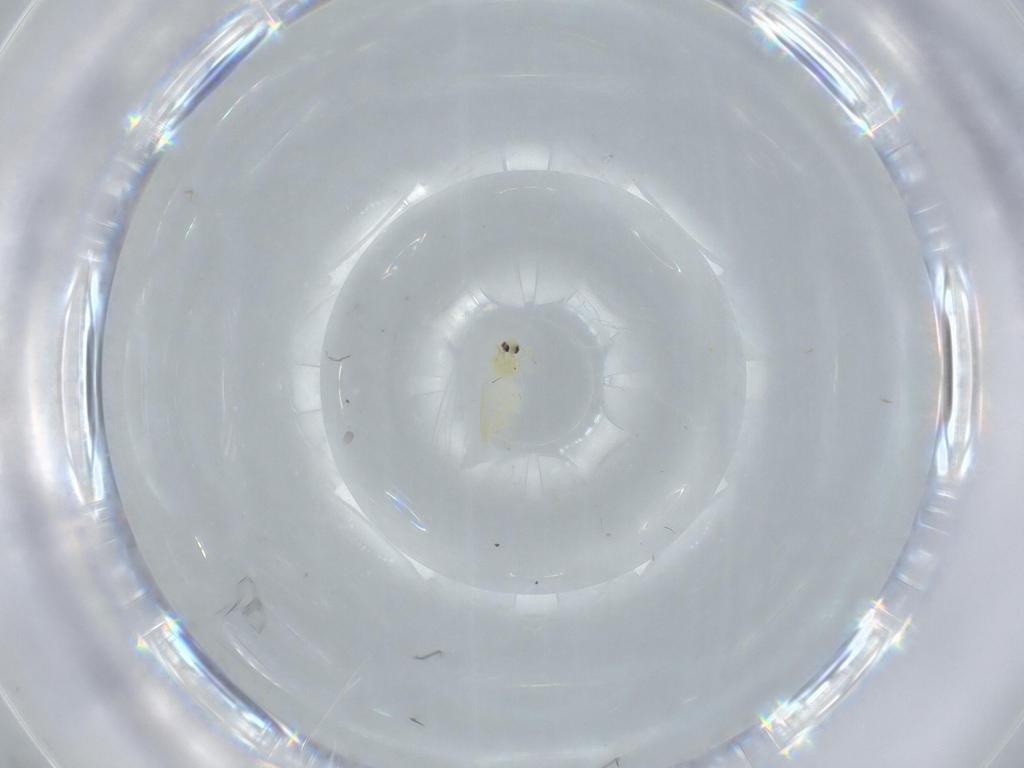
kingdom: Animalia
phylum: Arthropoda
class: Insecta
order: Hemiptera
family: Aleyrodidae
